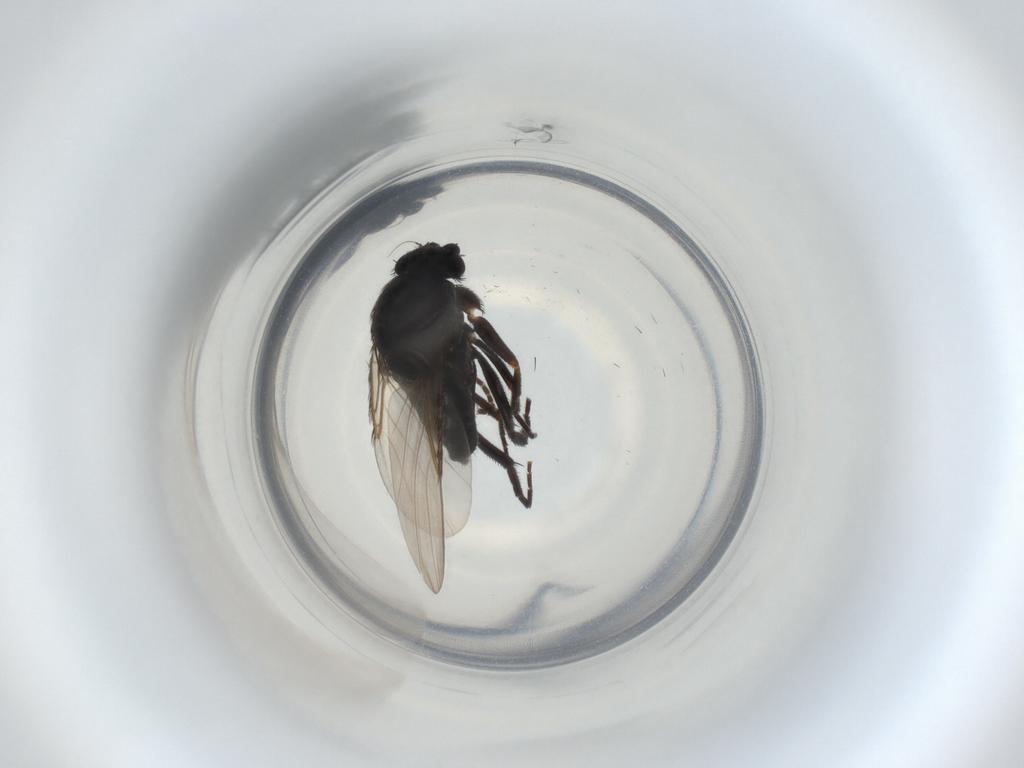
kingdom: Animalia
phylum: Arthropoda
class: Insecta
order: Diptera
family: Phoridae
